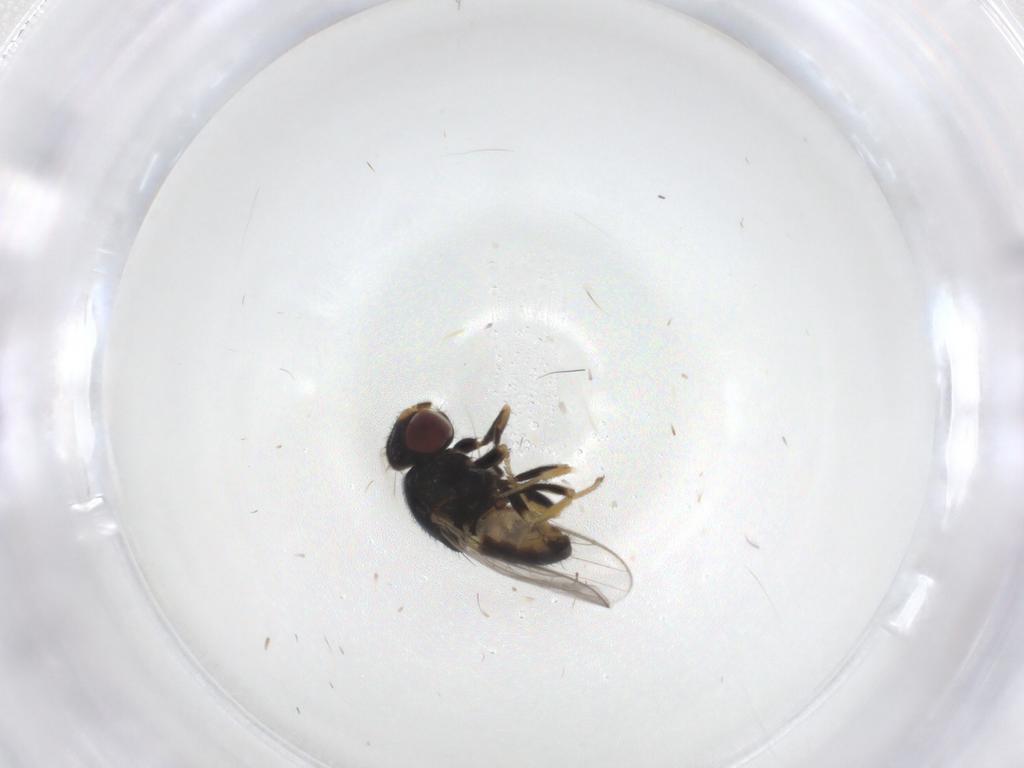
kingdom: Animalia
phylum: Arthropoda
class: Insecta
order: Diptera
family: Chloropidae
